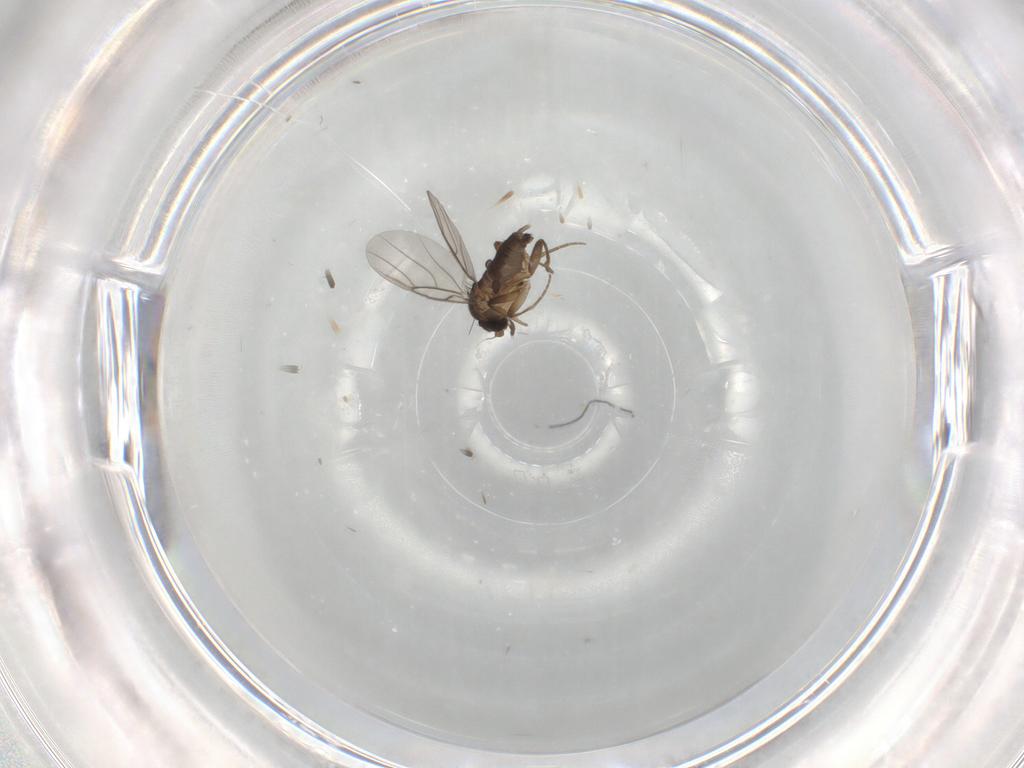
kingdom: Animalia
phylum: Arthropoda
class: Insecta
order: Diptera
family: Phoridae
